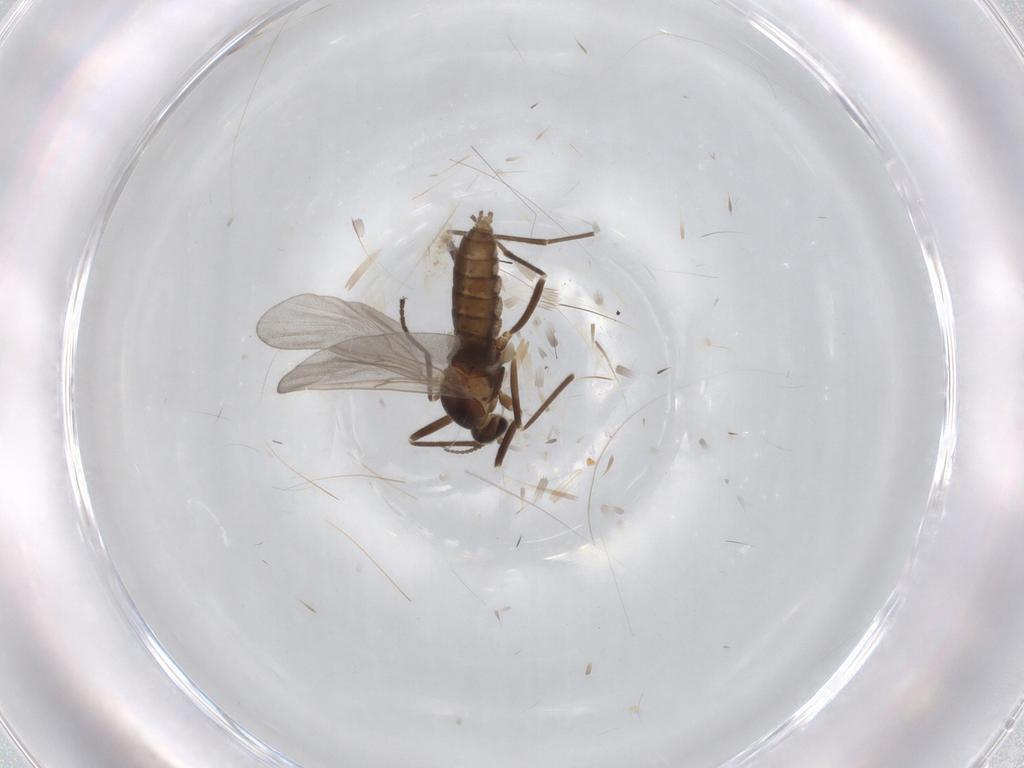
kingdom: Animalia
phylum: Arthropoda
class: Insecta
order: Diptera
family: Cecidomyiidae
